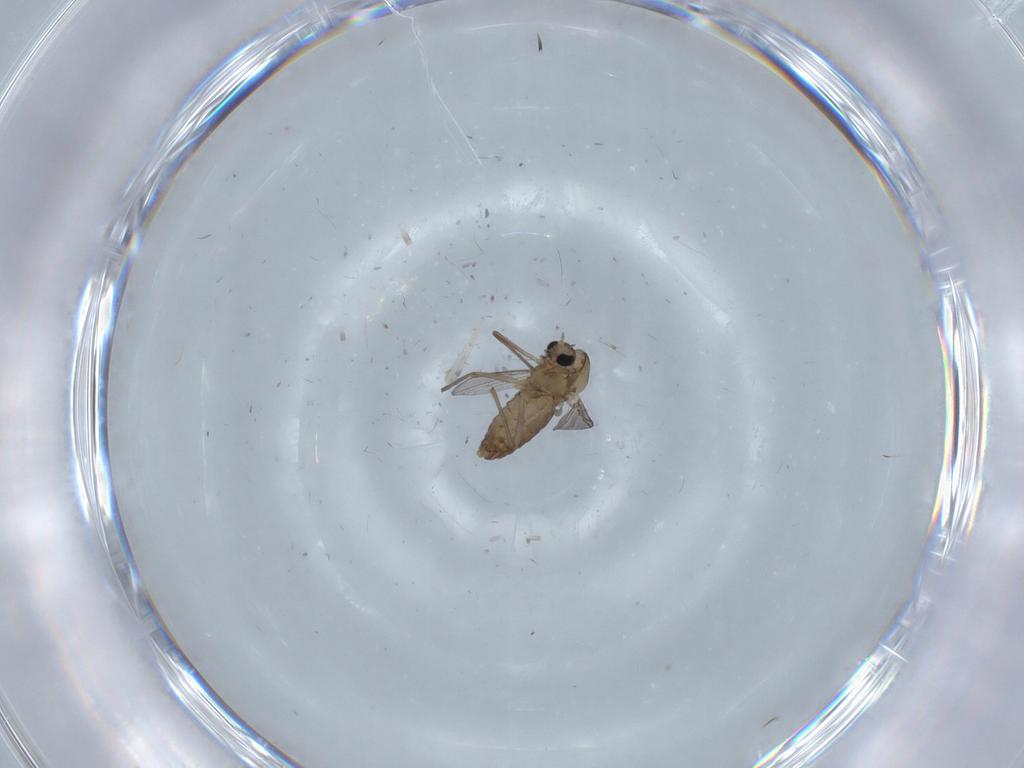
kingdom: Animalia
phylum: Arthropoda
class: Insecta
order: Diptera
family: Chironomidae
